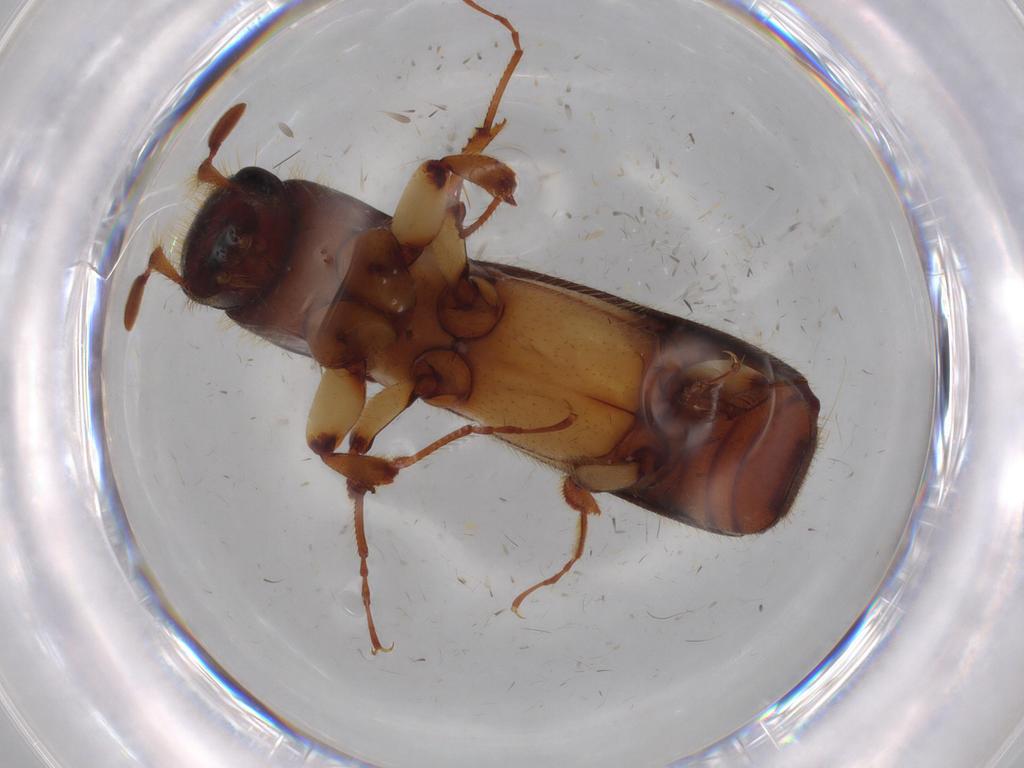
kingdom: Animalia
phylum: Arthropoda
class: Insecta
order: Coleoptera
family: Curculionidae
